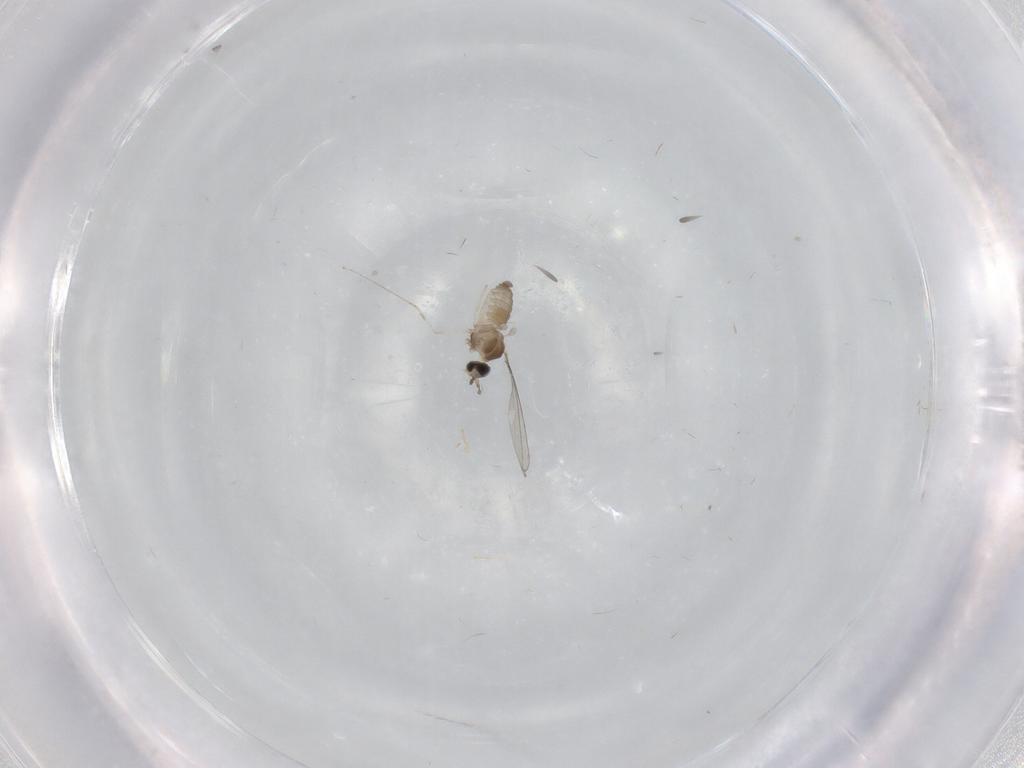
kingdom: Animalia
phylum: Arthropoda
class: Insecta
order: Diptera
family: Cecidomyiidae
